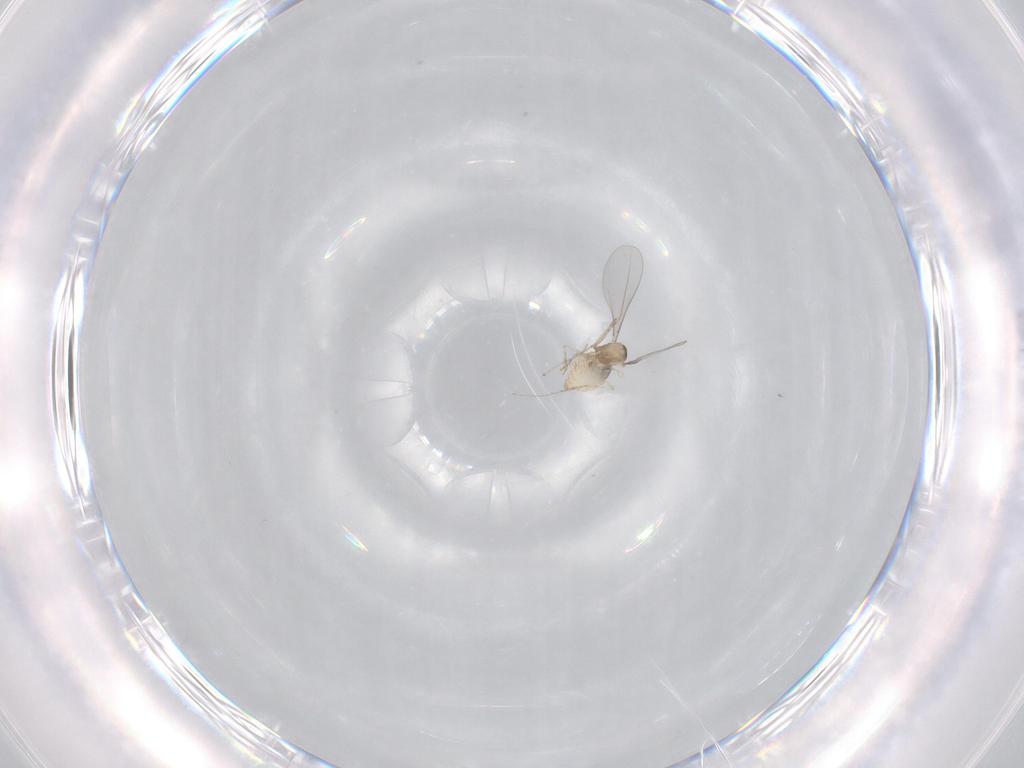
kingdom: Animalia
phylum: Arthropoda
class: Insecta
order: Diptera
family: Cecidomyiidae
